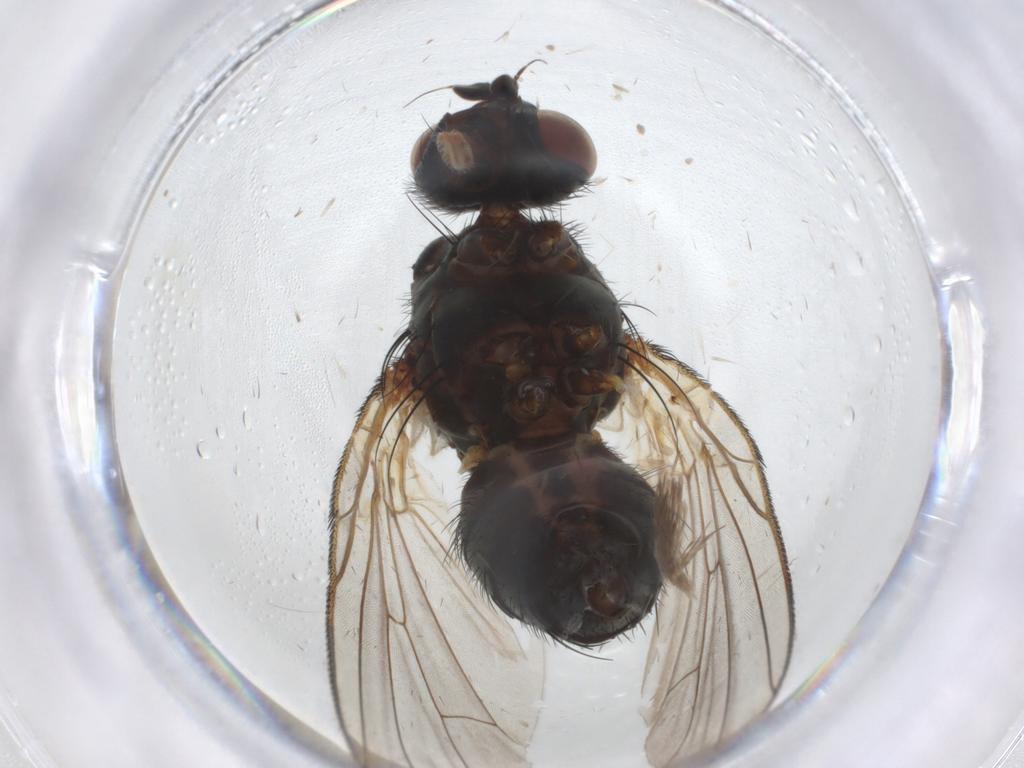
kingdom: Animalia
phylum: Arthropoda
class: Insecta
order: Diptera
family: Anthomyiidae
